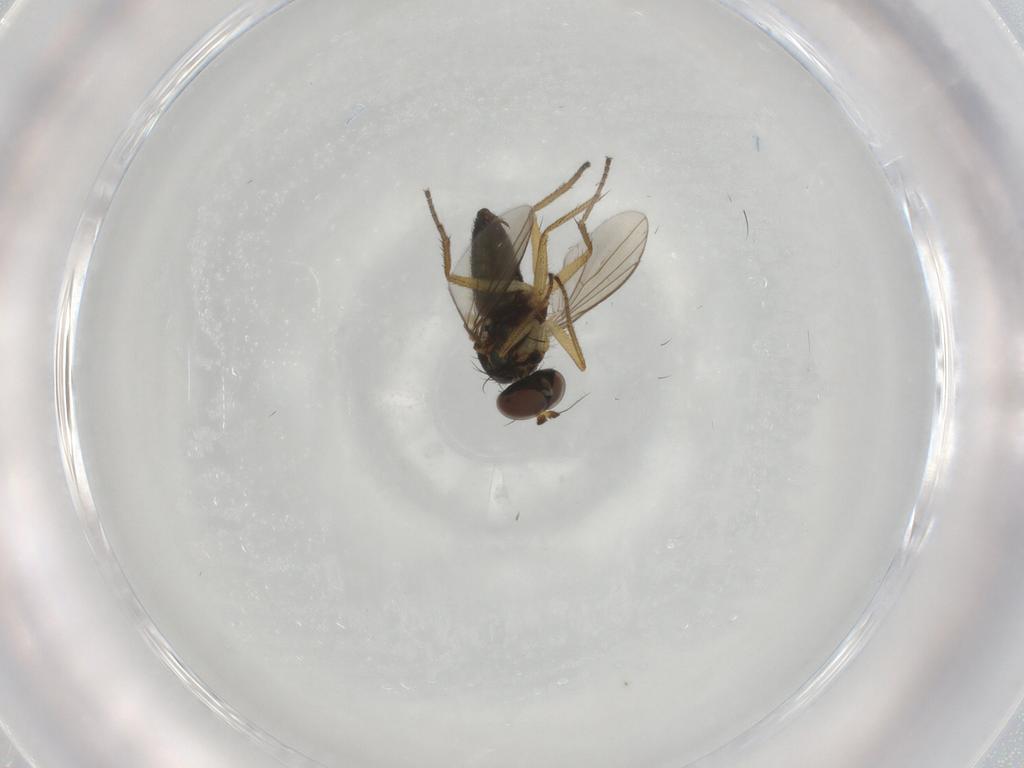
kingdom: Animalia
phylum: Arthropoda
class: Insecta
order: Diptera
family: Dolichopodidae
